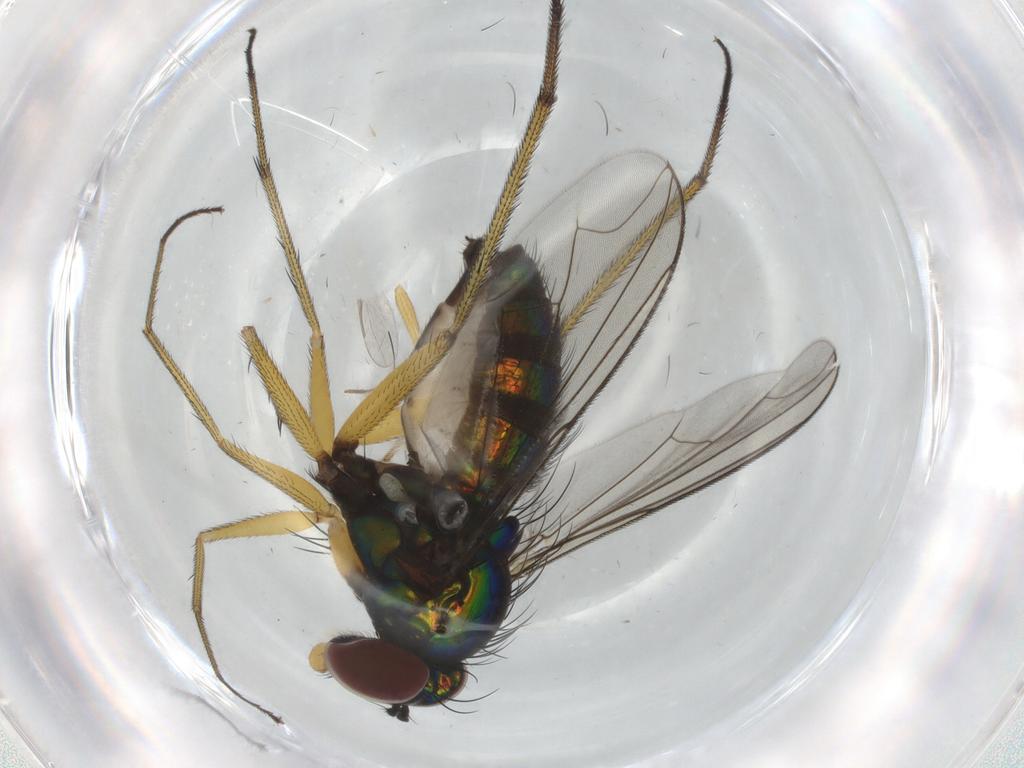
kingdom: Animalia
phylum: Arthropoda
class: Insecta
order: Diptera
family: Dolichopodidae
